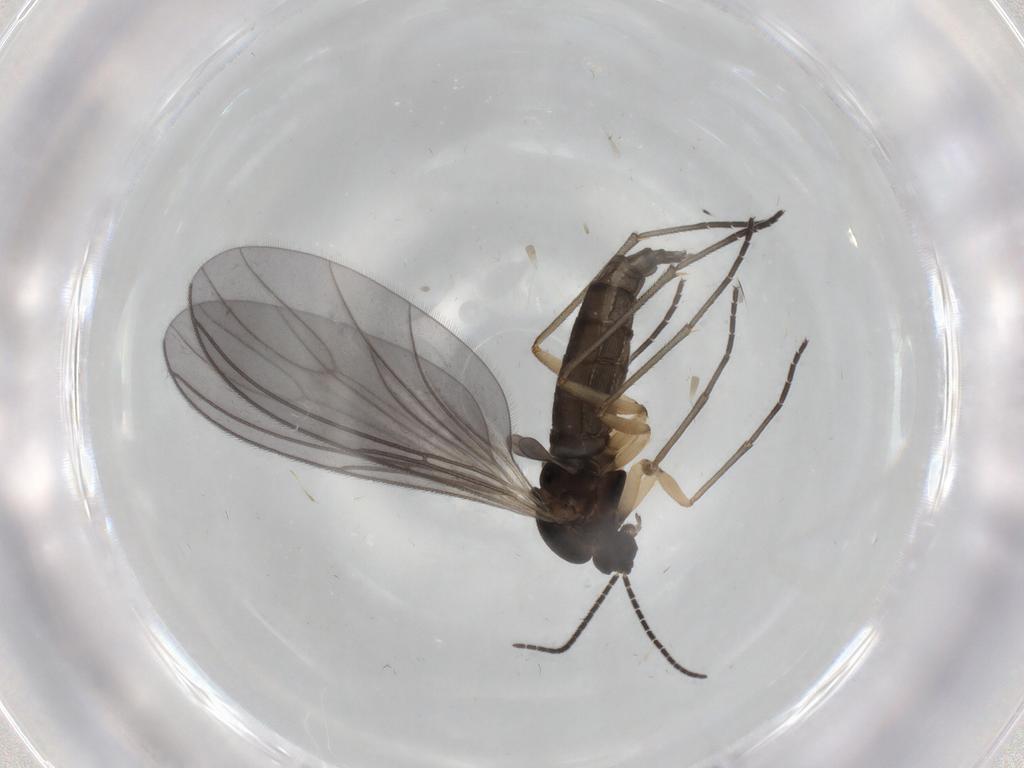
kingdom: Animalia
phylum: Arthropoda
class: Insecta
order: Diptera
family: Sciaridae
